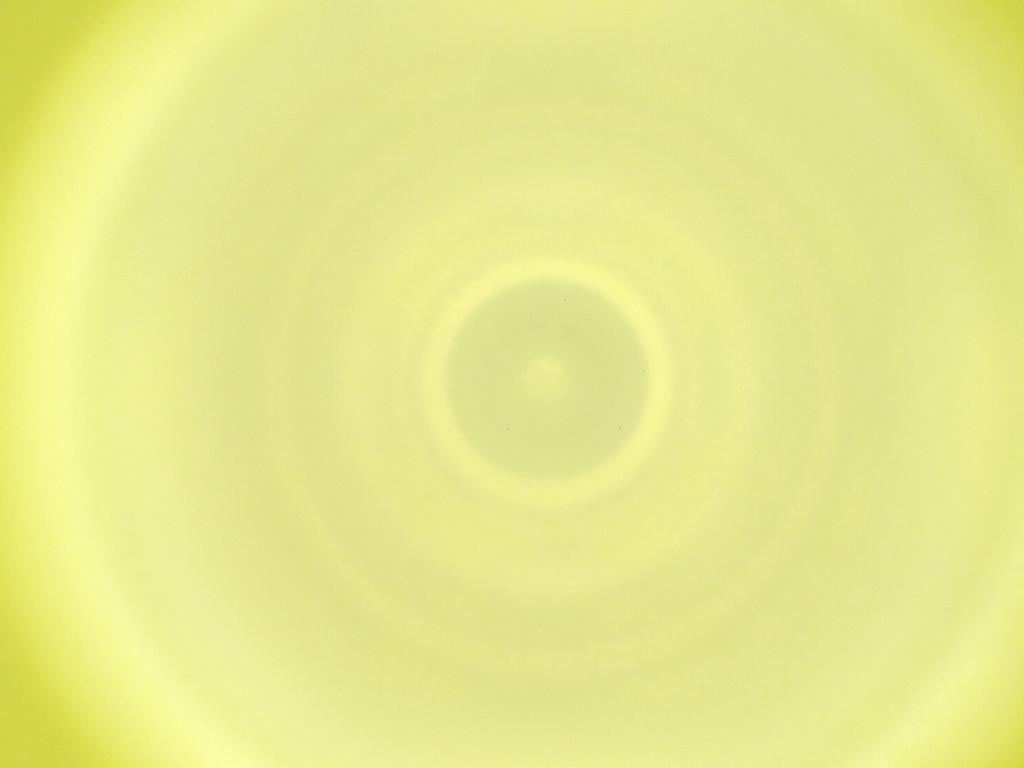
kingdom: Animalia
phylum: Arthropoda
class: Insecta
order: Diptera
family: Cecidomyiidae
